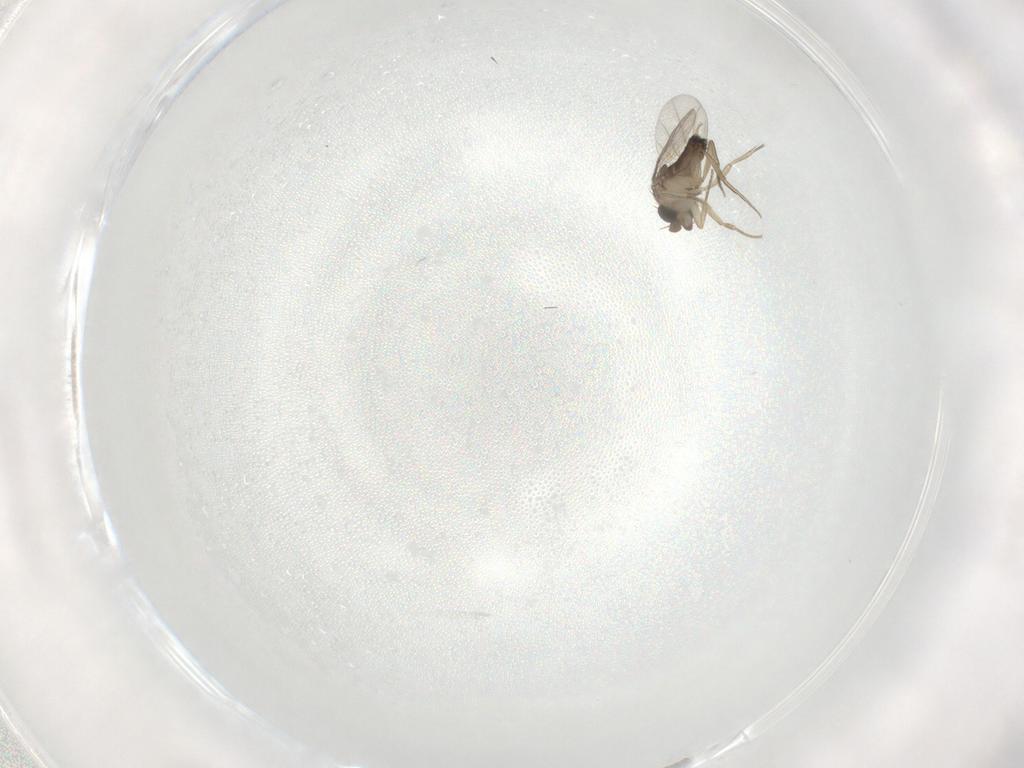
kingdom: Animalia
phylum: Arthropoda
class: Insecta
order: Diptera
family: Phoridae
